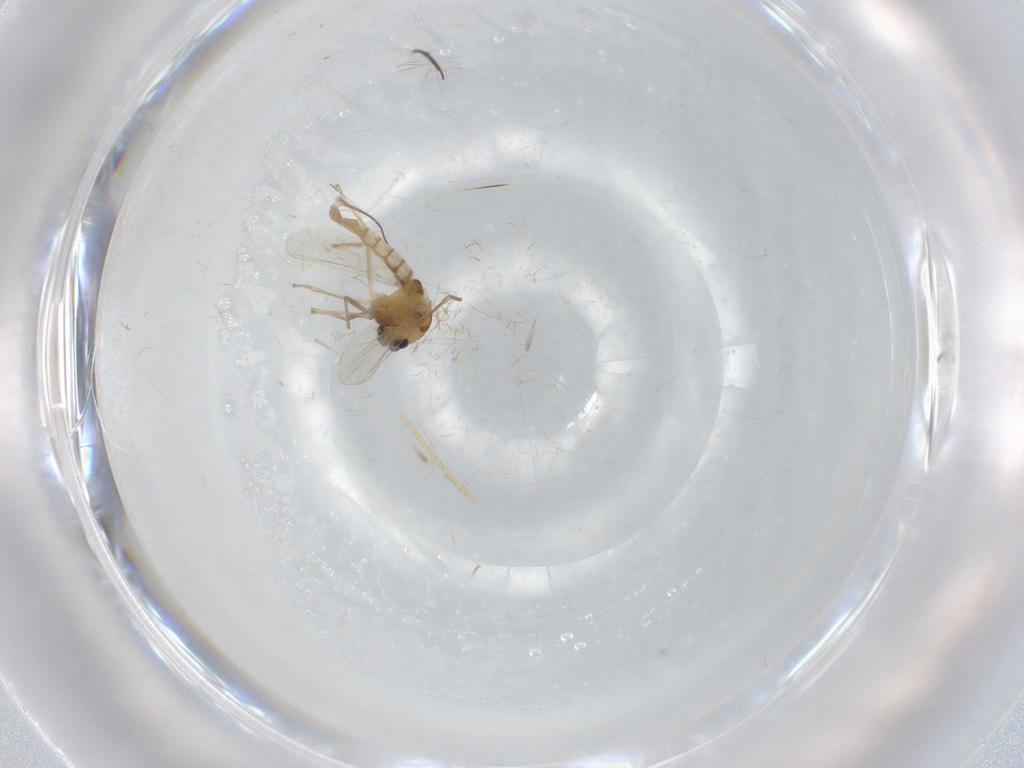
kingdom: Animalia
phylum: Arthropoda
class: Insecta
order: Diptera
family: Chironomidae
